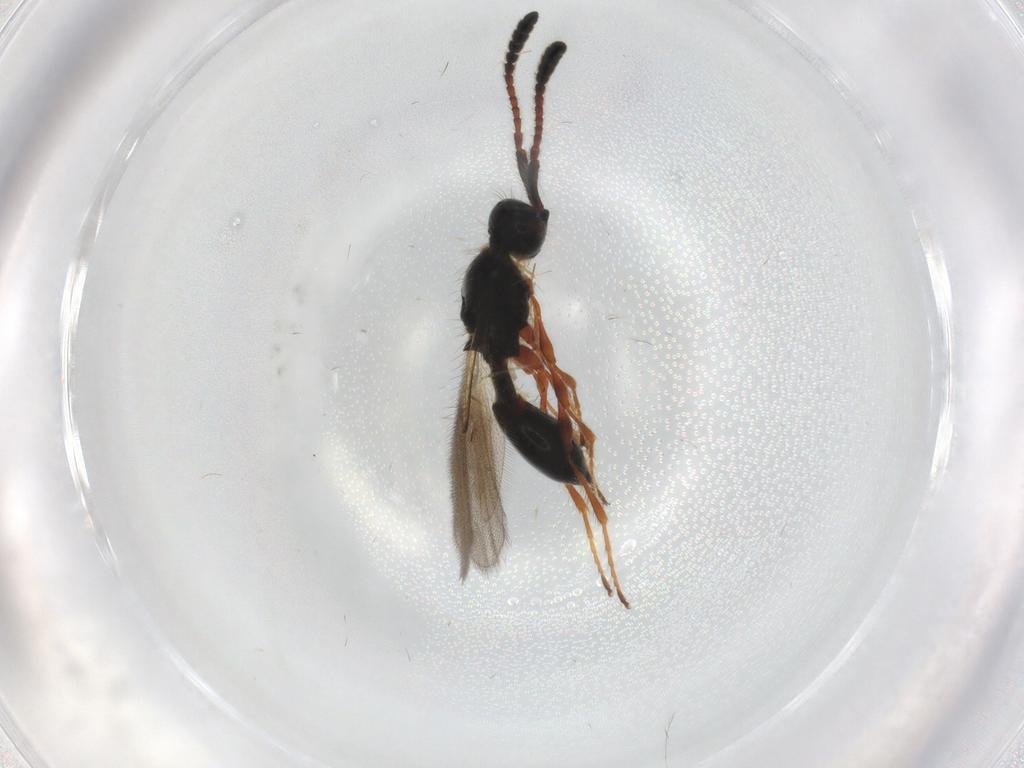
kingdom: Animalia
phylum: Arthropoda
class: Insecta
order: Hymenoptera
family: Diapriidae
